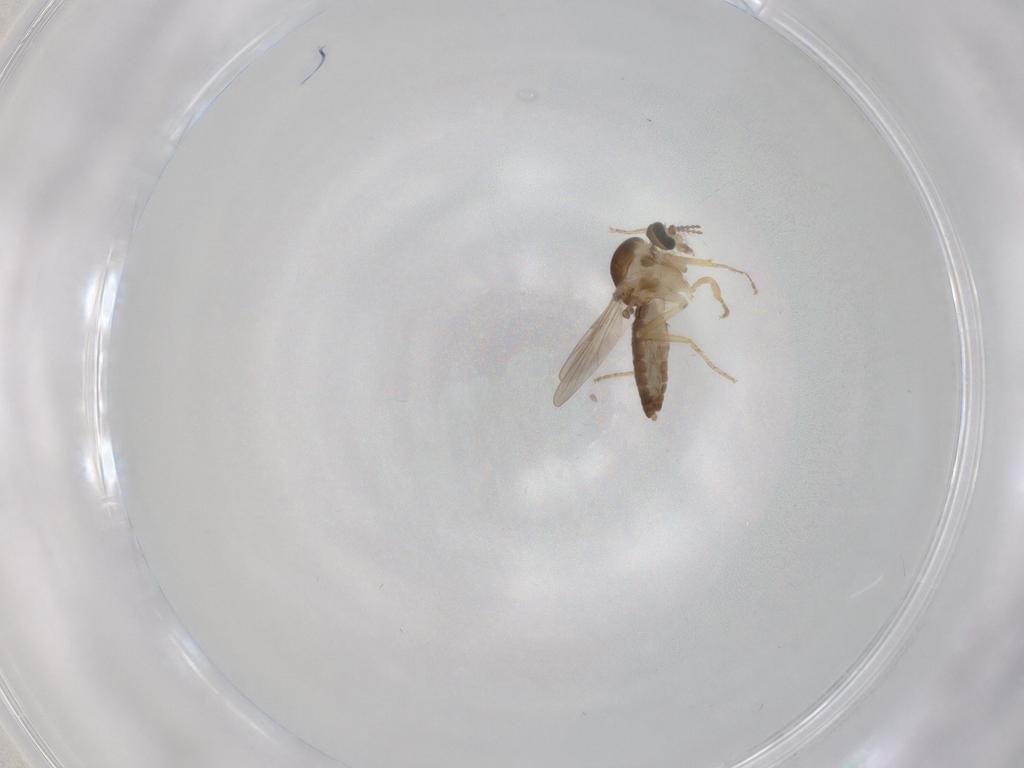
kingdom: Animalia
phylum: Arthropoda
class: Insecta
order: Diptera
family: Ceratopogonidae
